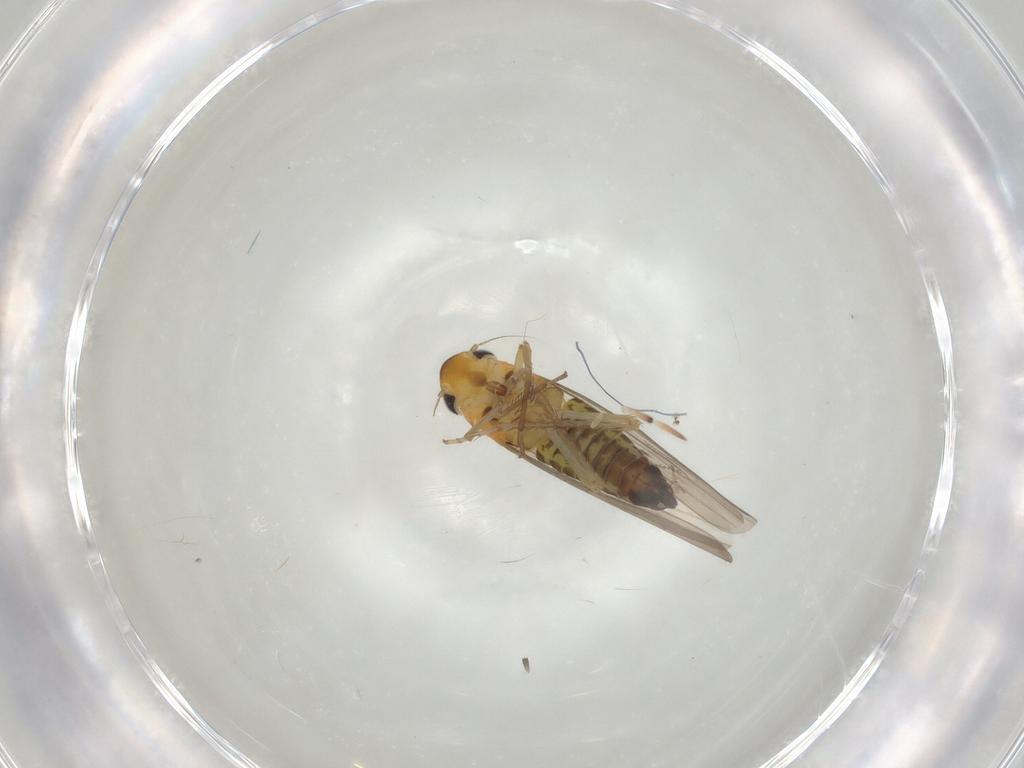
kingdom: Animalia
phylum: Arthropoda
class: Insecta
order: Hemiptera
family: Cicadellidae
